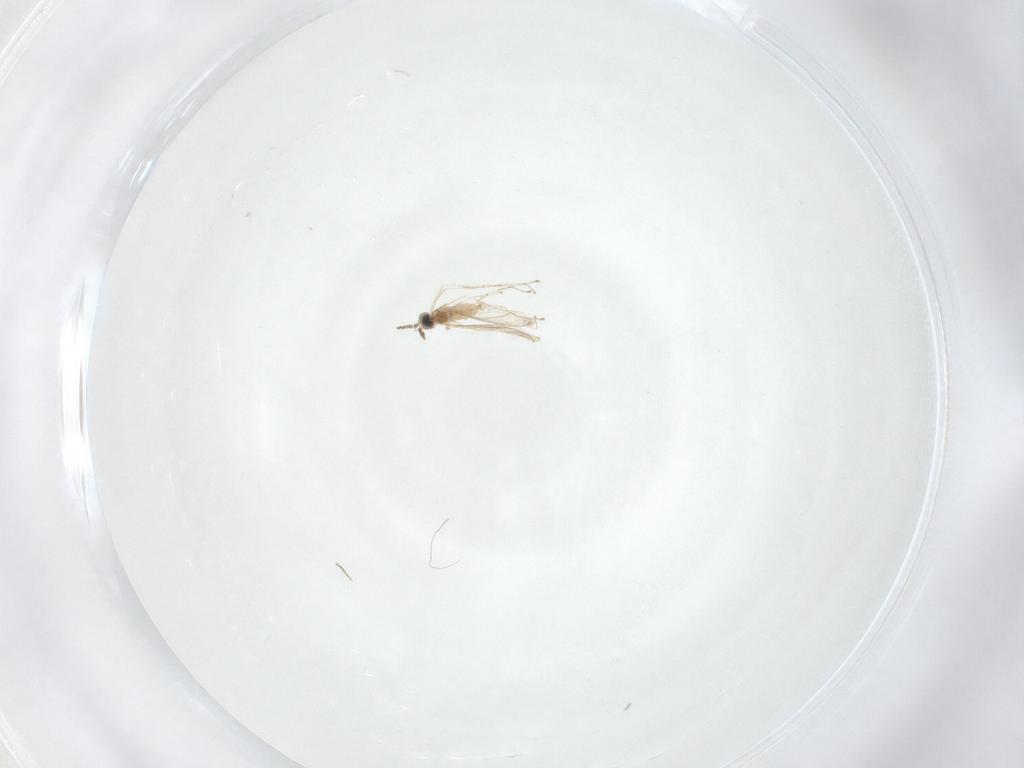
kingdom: Animalia
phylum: Arthropoda
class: Insecta
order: Diptera
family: Cecidomyiidae
